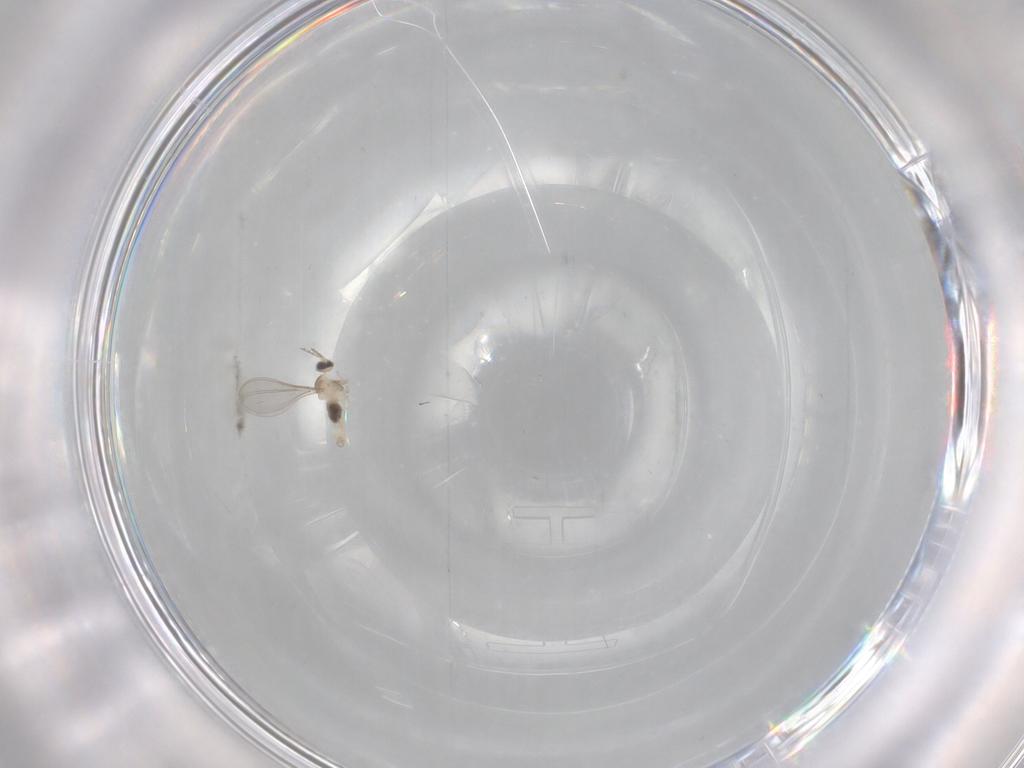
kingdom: Animalia
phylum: Arthropoda
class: Insecta
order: Diptera
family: Cecidomyiidae
